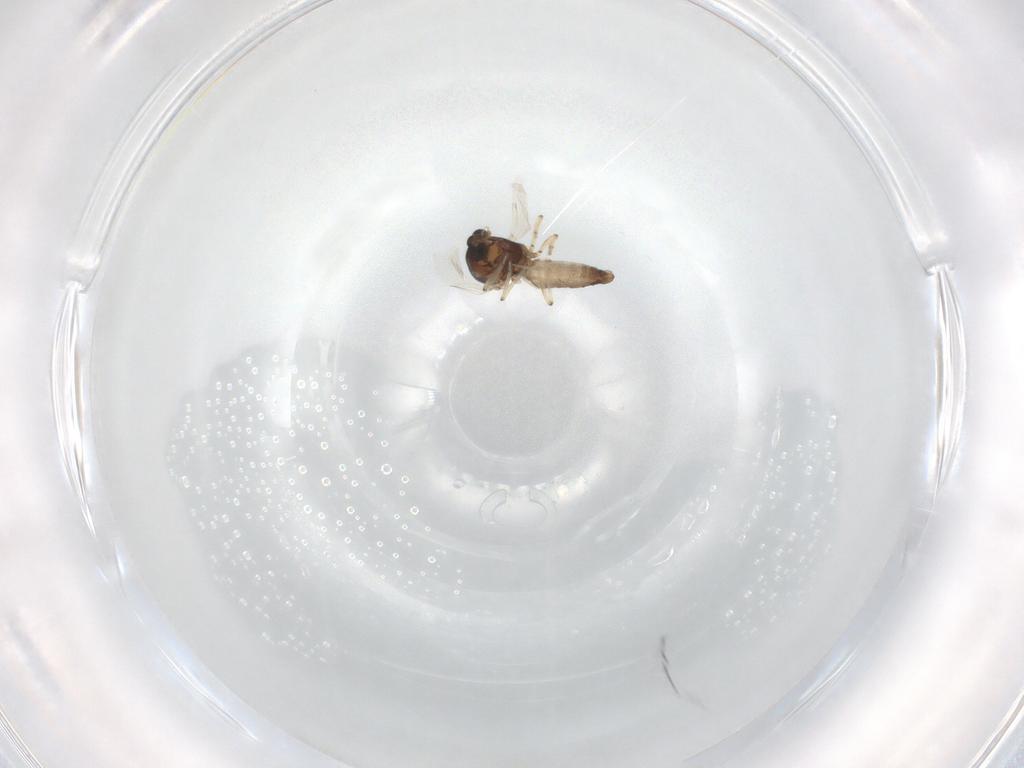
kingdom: Animalia
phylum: Arthropoda
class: Insecta
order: Diptera
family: Ceratopogonidae
